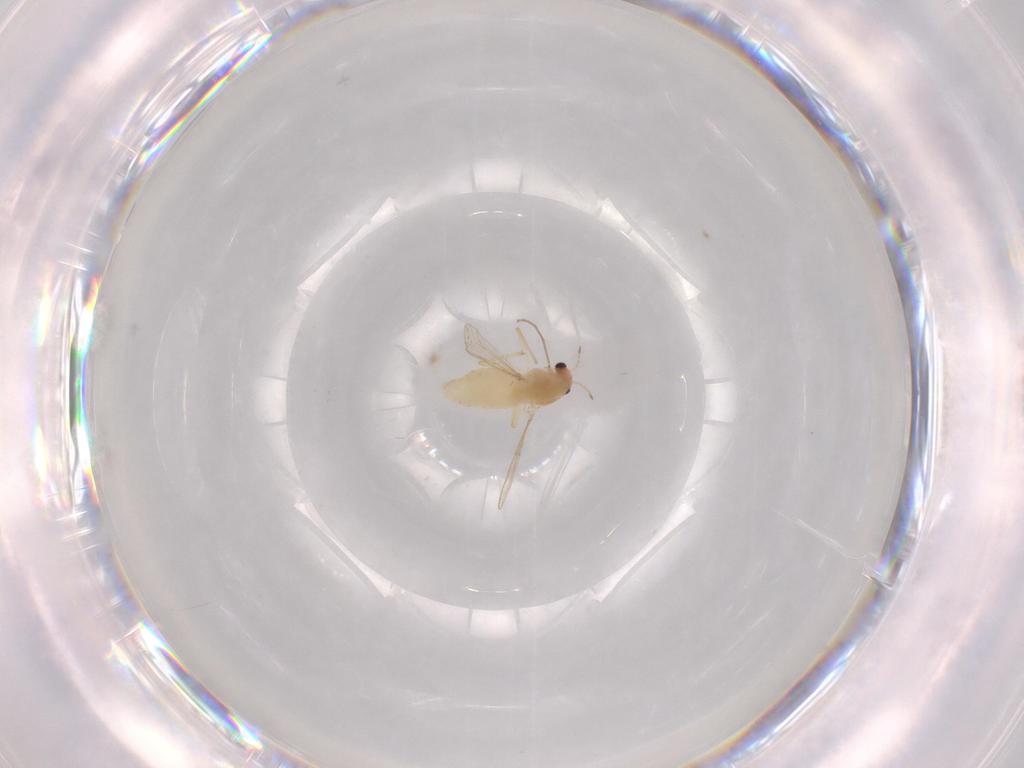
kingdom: Animalia
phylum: Arthropoda
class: Insecta
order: Diptera
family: Chironomidae
